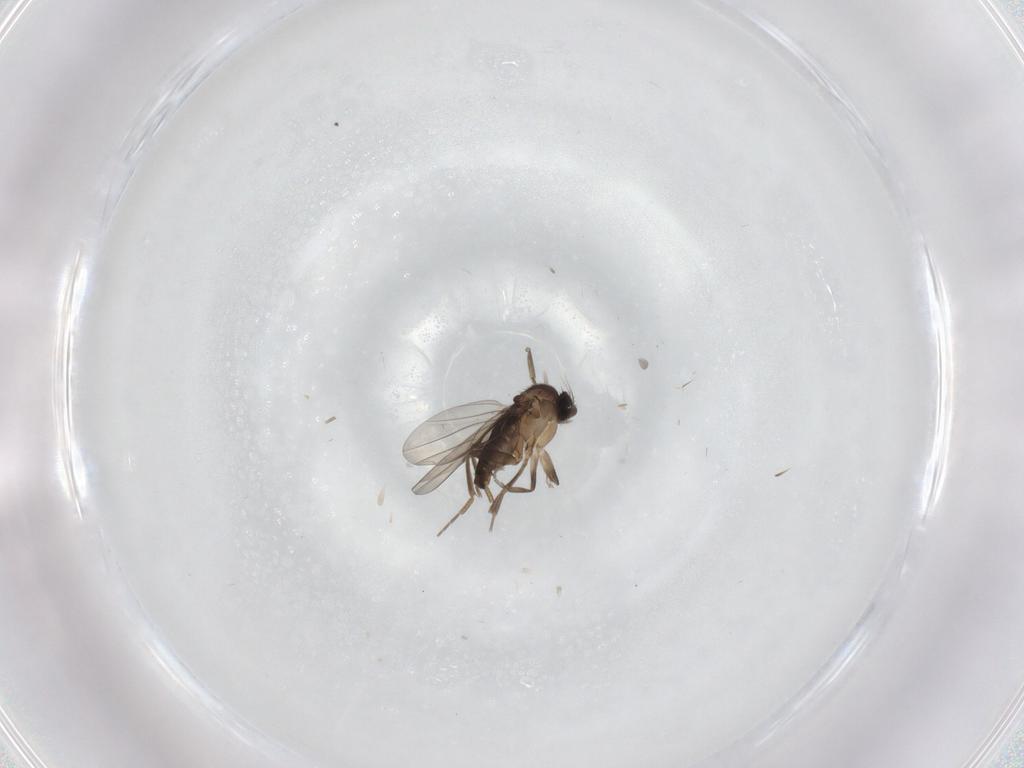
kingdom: Animalia
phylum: Arthropoda
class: Insecta
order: Diptera
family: Phoridae
